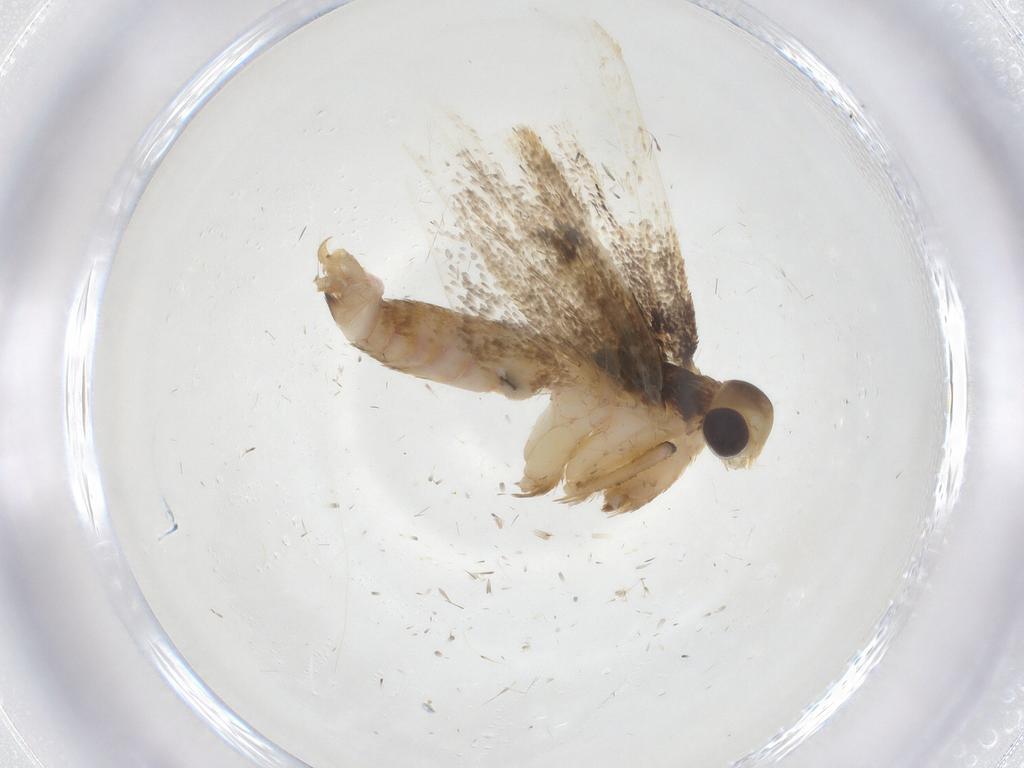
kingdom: Animalia
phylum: Arthropoda
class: Insecta
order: Lepidoptera
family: Lecithoceridae
